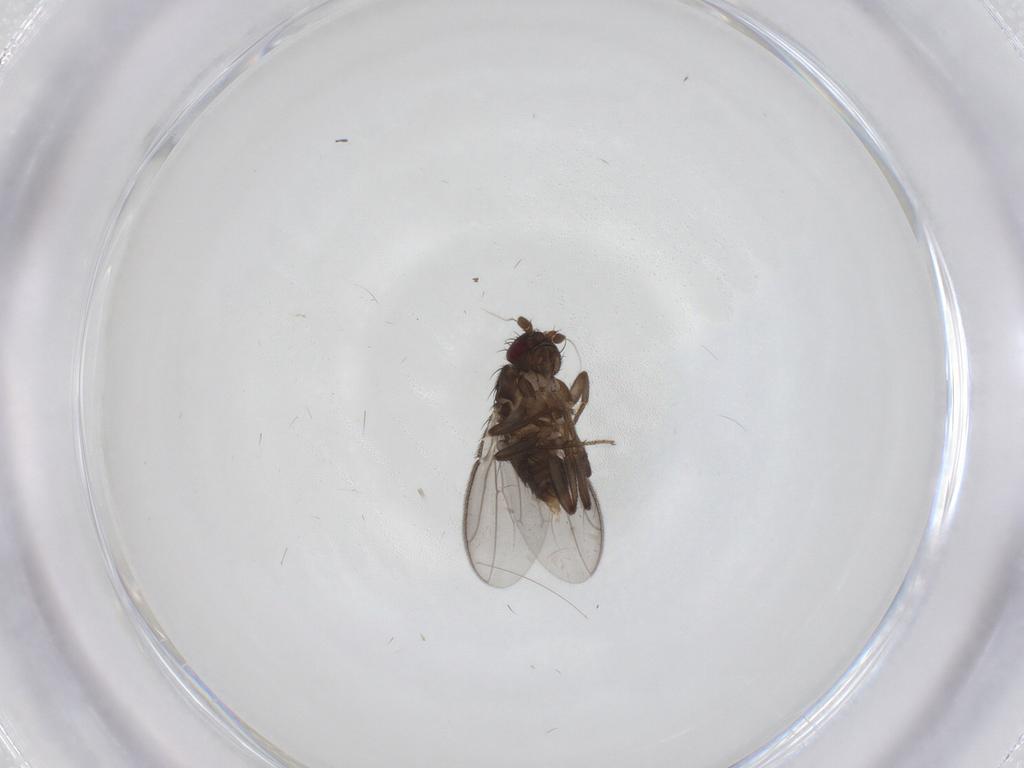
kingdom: Animalia
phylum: Arthropoda
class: Insecta
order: Diptera
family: Sphaeroceridae
